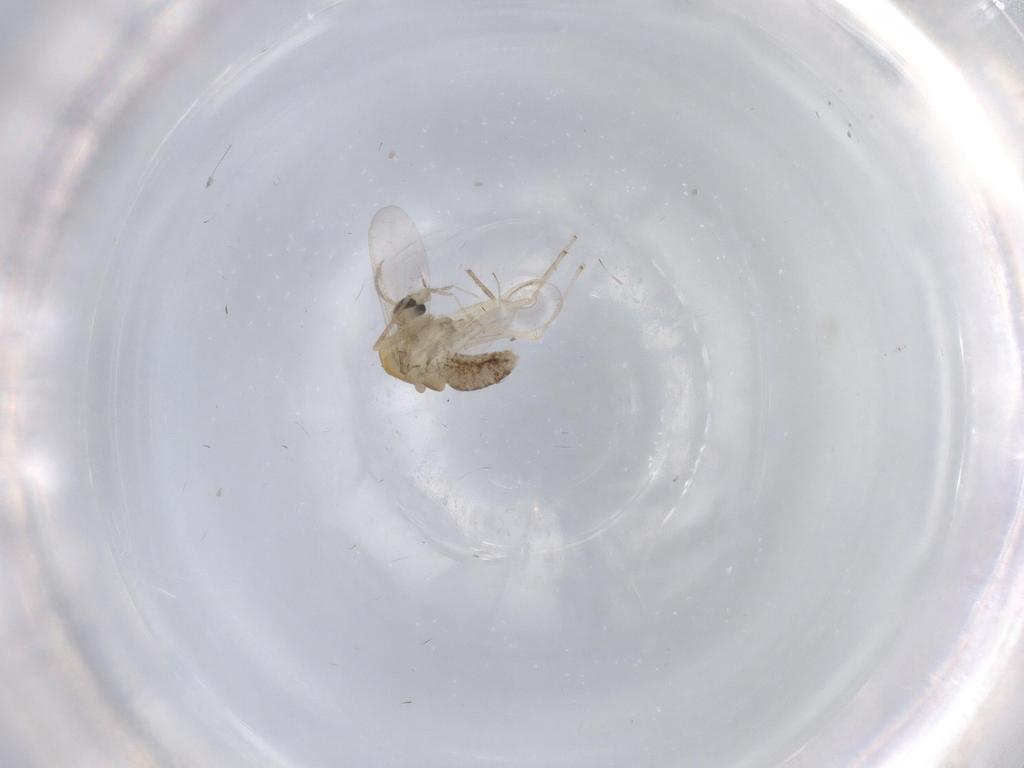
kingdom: Animalia
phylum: Arthropoda
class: Insecta
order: Diptera
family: Chironomidae
